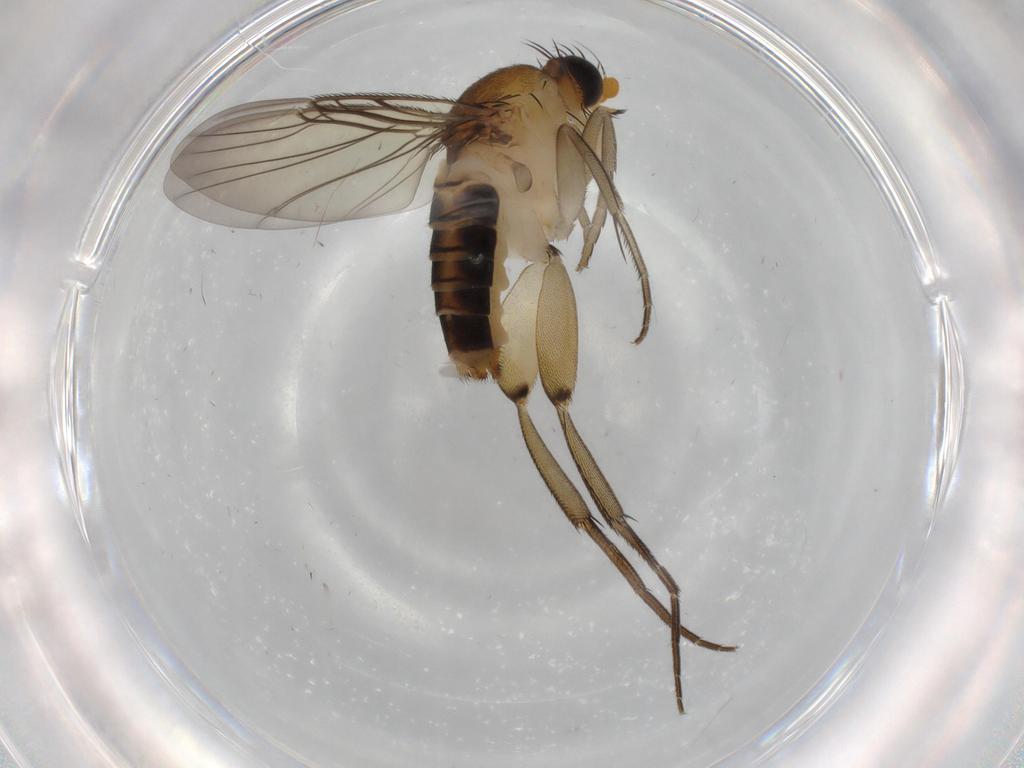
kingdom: Animalia
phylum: Arthropoda
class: Insecta
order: Diptera
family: Phoridae
